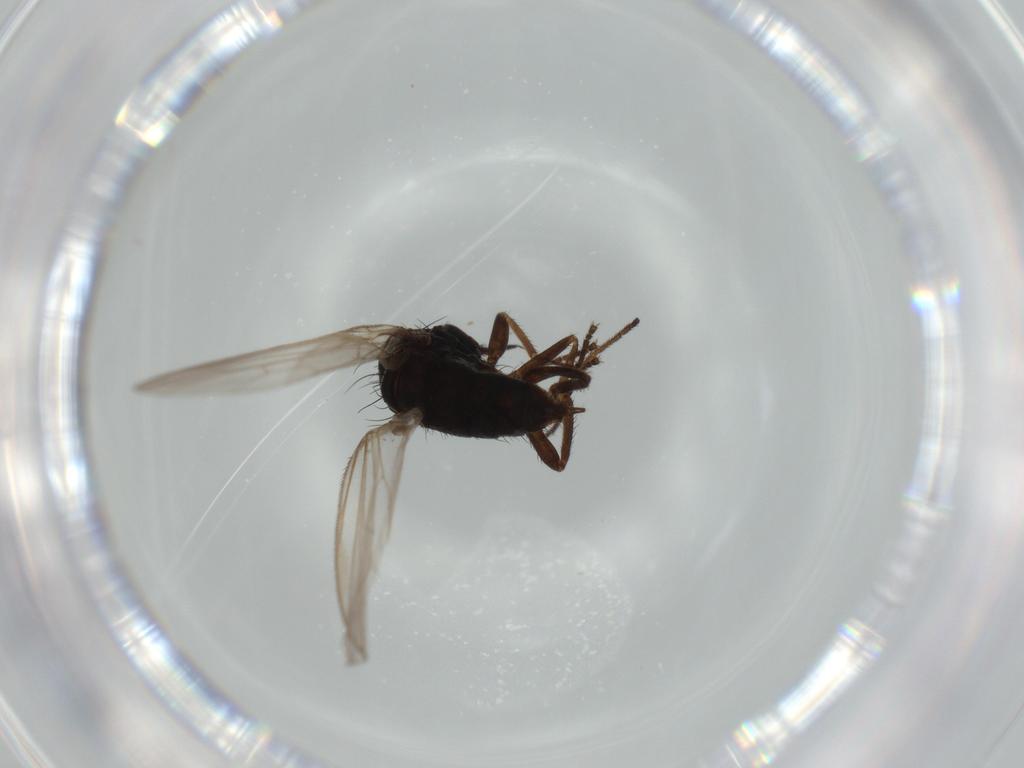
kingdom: Animalia
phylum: Arthropoda
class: Insecta
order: Diptera
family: Dolichopodidae
